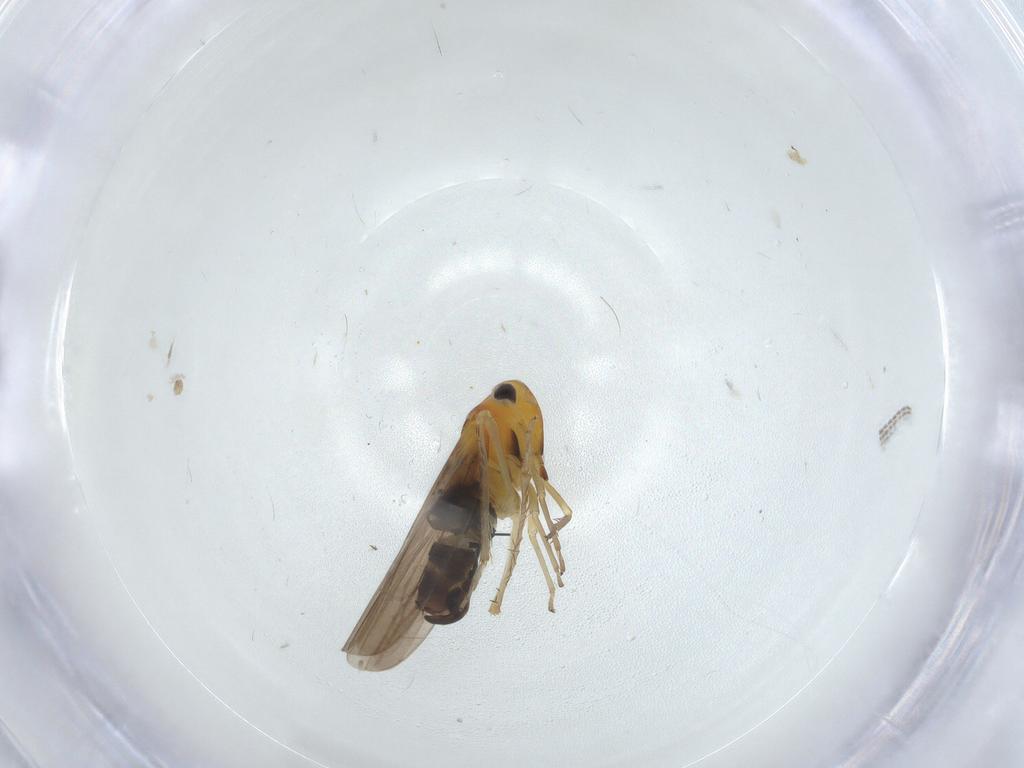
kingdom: Animalia
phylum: Arthropoda
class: Insecta
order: Hemiptera
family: Cicadellidae
